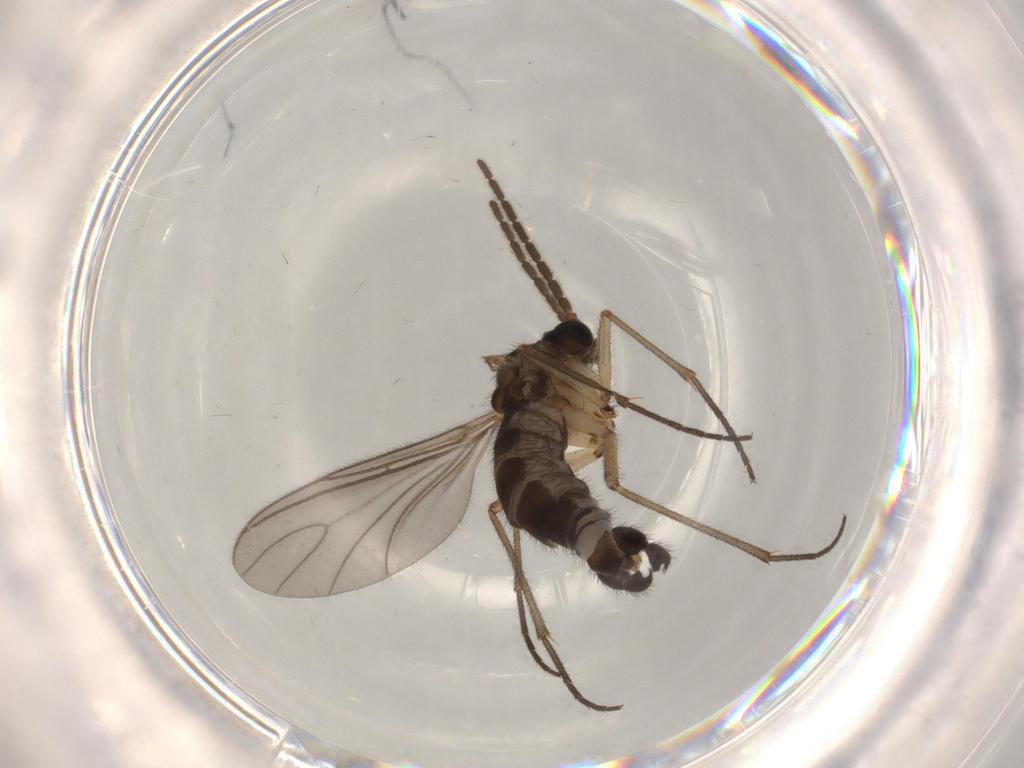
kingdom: Animalia
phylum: Arthropoda
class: Insecta
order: Diptera
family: Sciaridae
